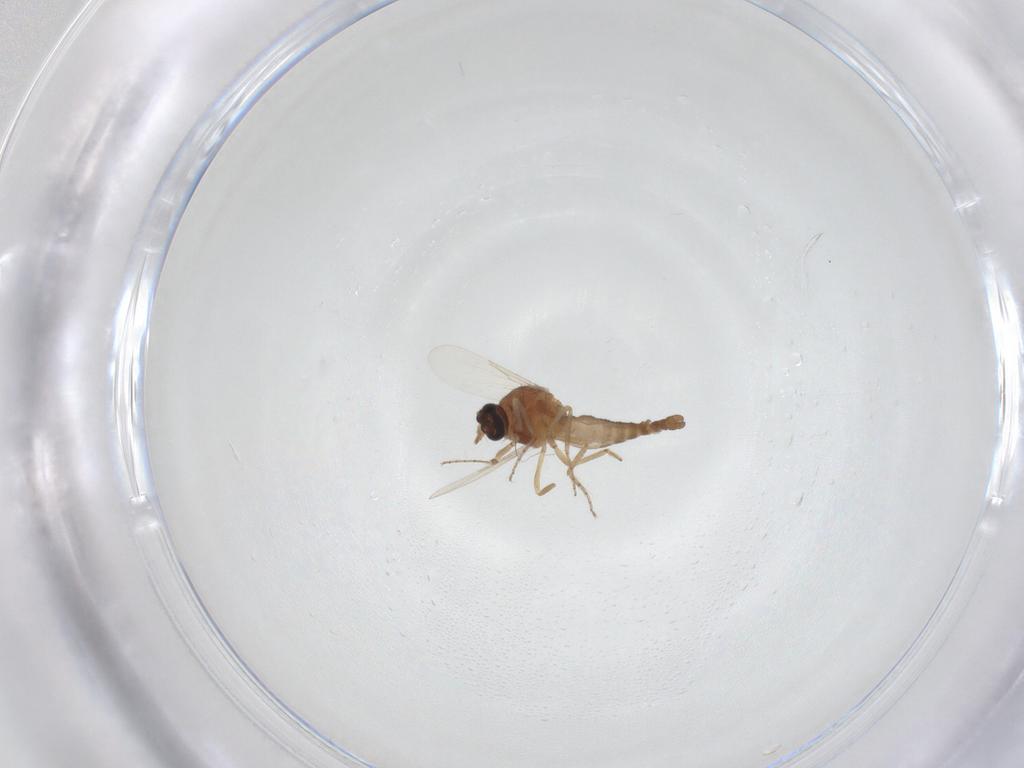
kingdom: Animalia
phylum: Arthropoda
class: Insecta
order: Diptera
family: Ceratopogonidae
